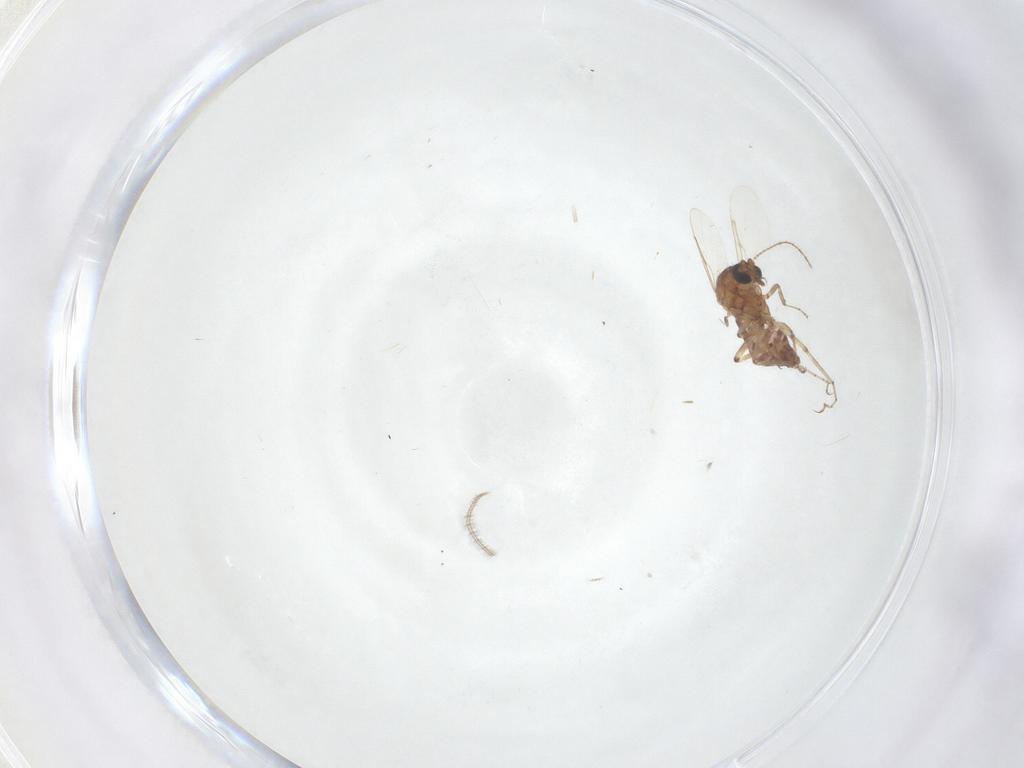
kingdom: Animalia
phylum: Arthropoda
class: Insecta
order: Diptera
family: Ceratopogonidae
